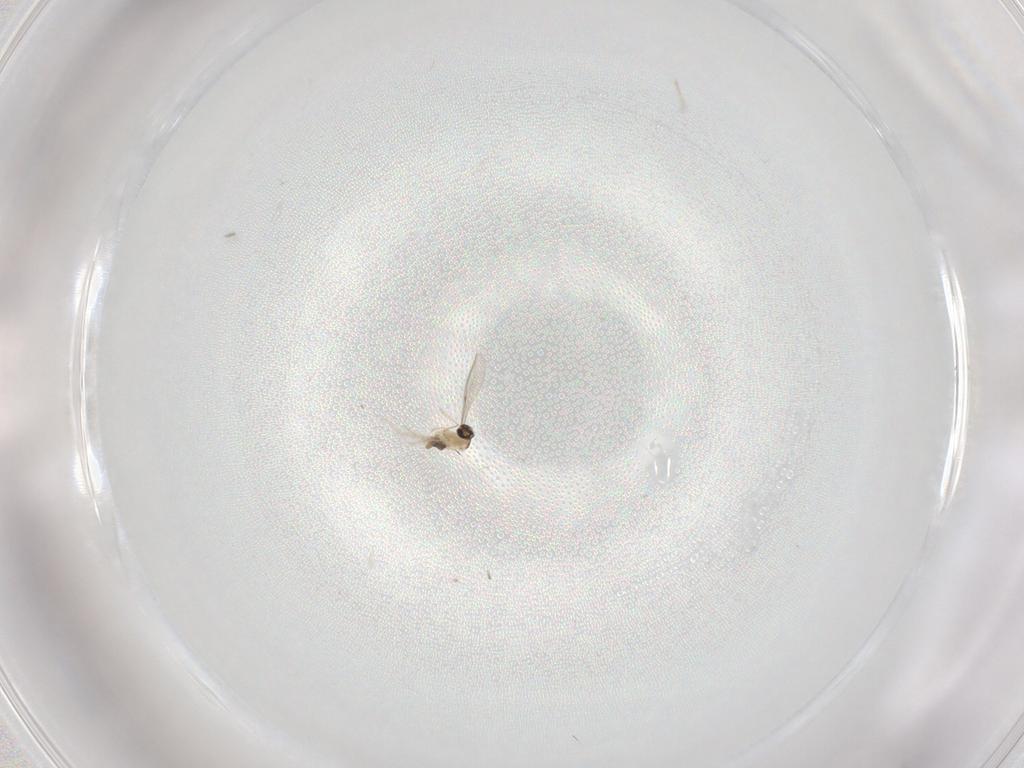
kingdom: Animalia
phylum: Arthropoda
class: Insecta
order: Diptera
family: Cecidomyiidae
